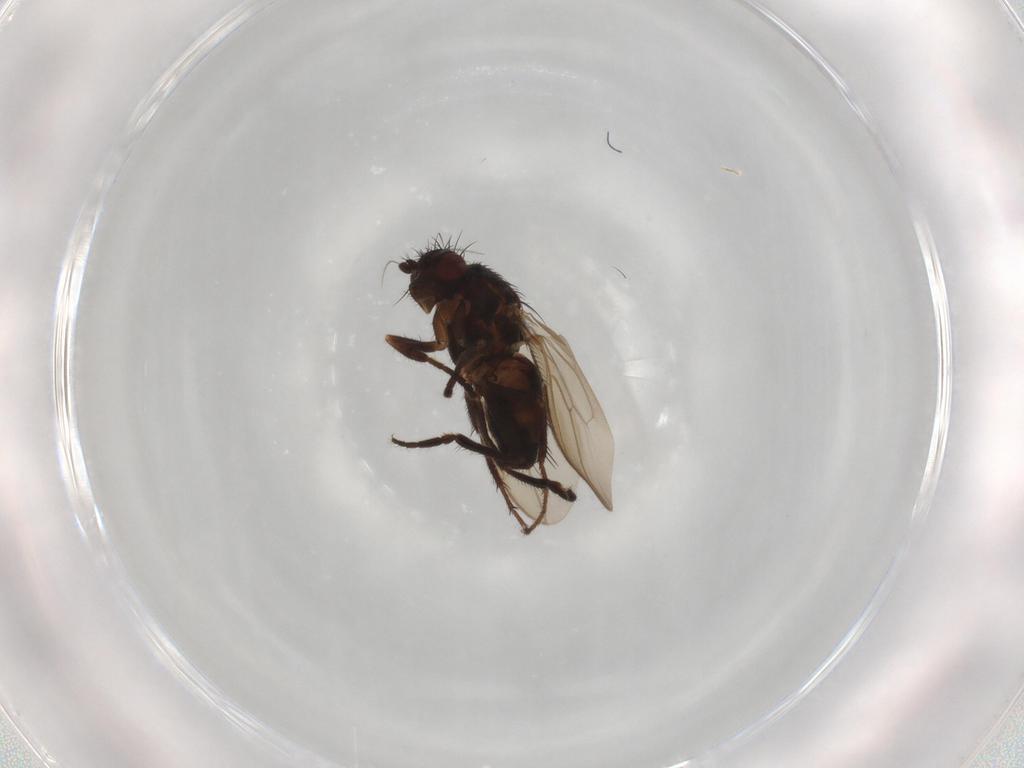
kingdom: Animalia
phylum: Arthropoda
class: Insecta
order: Diptera
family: Sphaeroceridae
